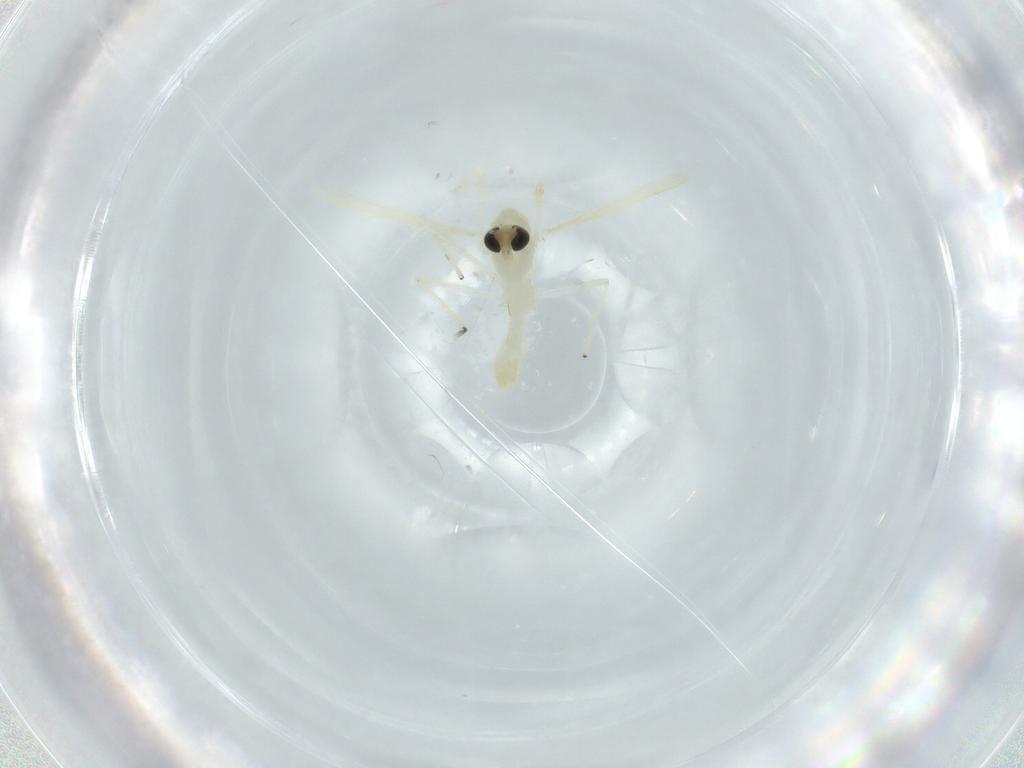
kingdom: Animalia
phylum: Arthropoda
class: Insecta
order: Diptera
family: Chironomidae
